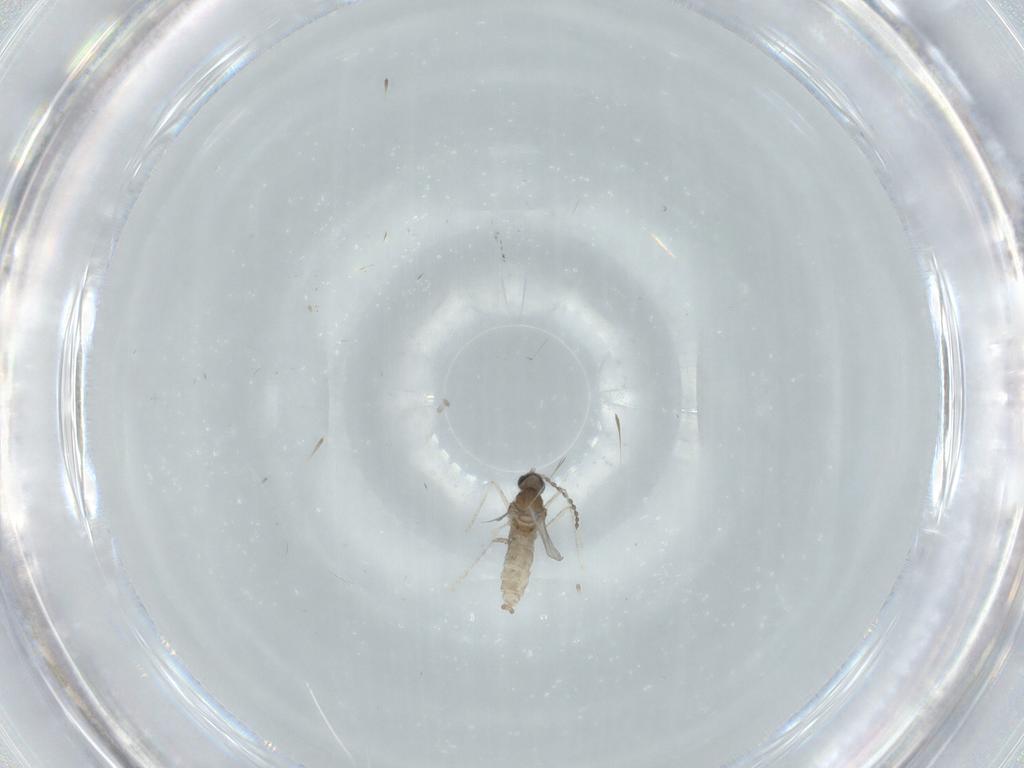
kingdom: Animalia
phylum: Arthropoda
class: Insecta
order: Diptera
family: Cecidomyiidae
